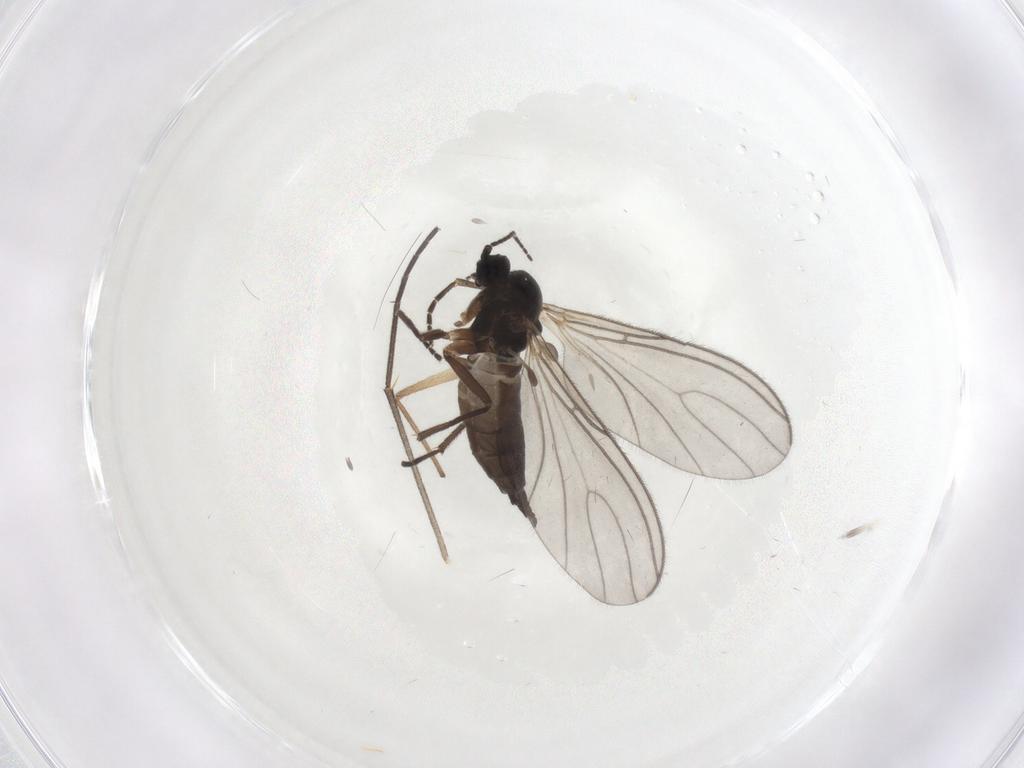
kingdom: Animalia
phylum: Arthropoda
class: Insecta
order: Diptera
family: Sciaridae
